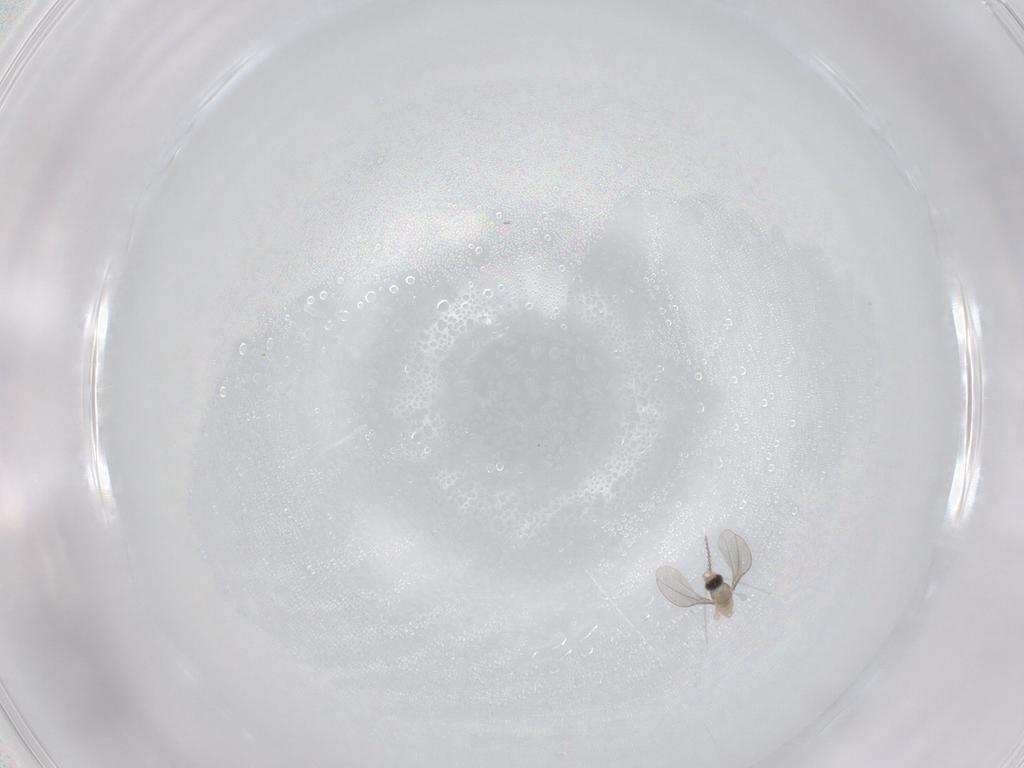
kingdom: Animalia
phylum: Arthropoda
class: Insecta
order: Diptera
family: Cecidomyiidae
